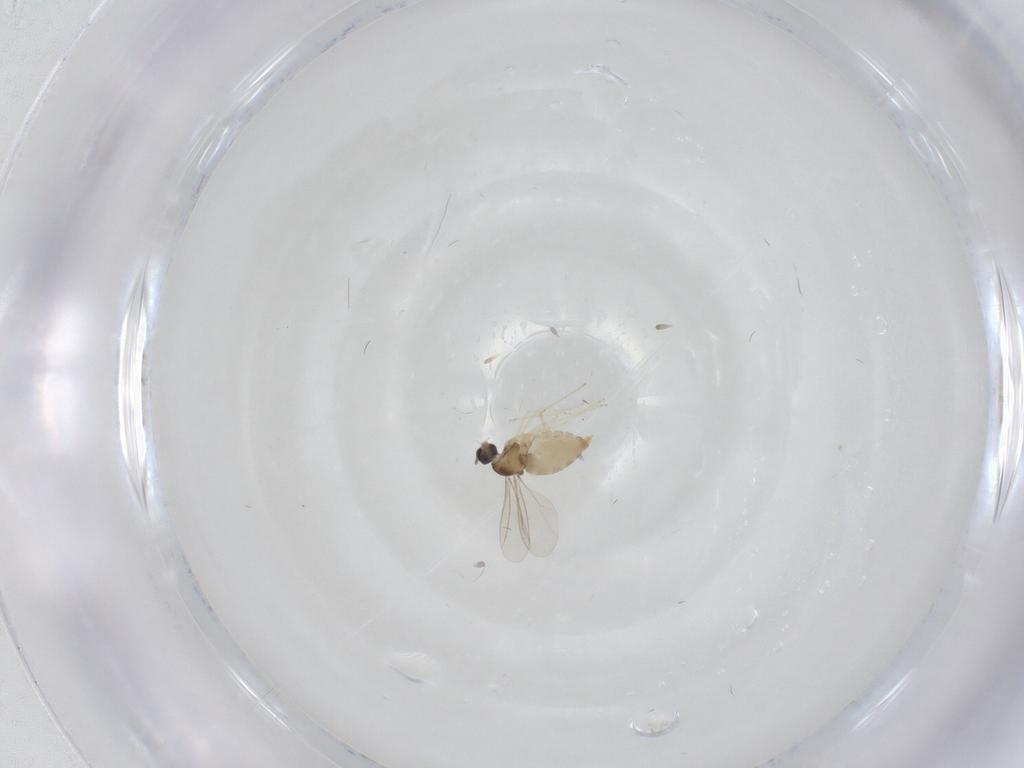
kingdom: Animalia
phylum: Arthropoda
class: Insecta
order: Diptera
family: Cecidomyiidae
